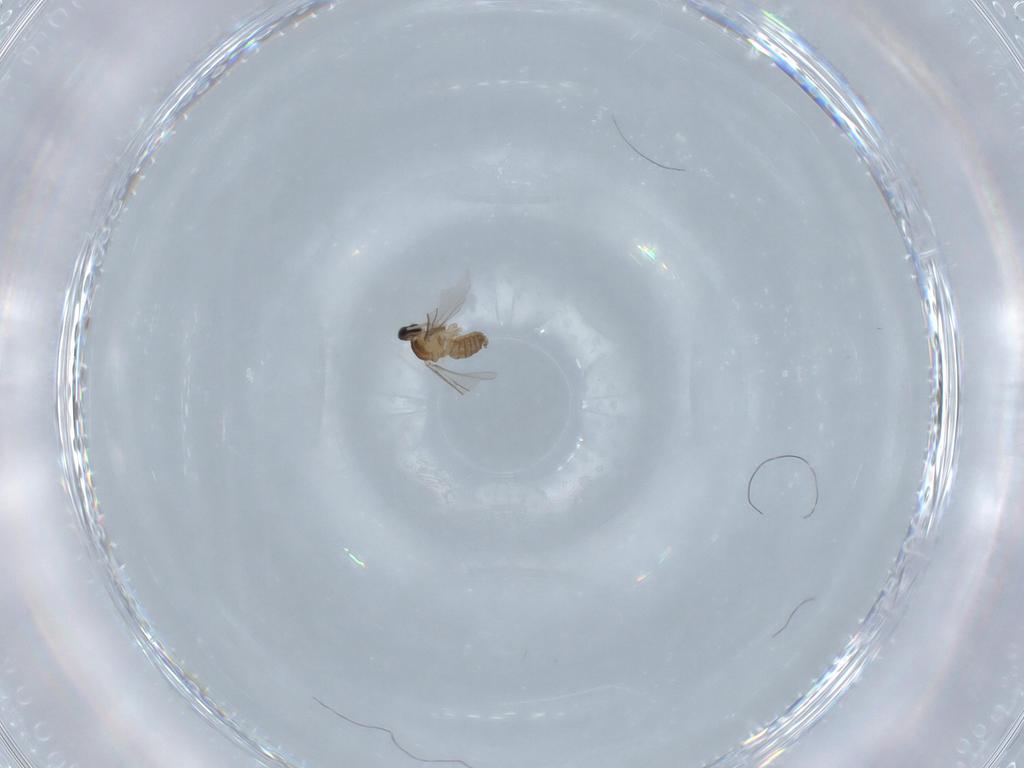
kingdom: Animalia
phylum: Arthropoda
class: Insecta
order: Diptera
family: Cecidomyiidae
